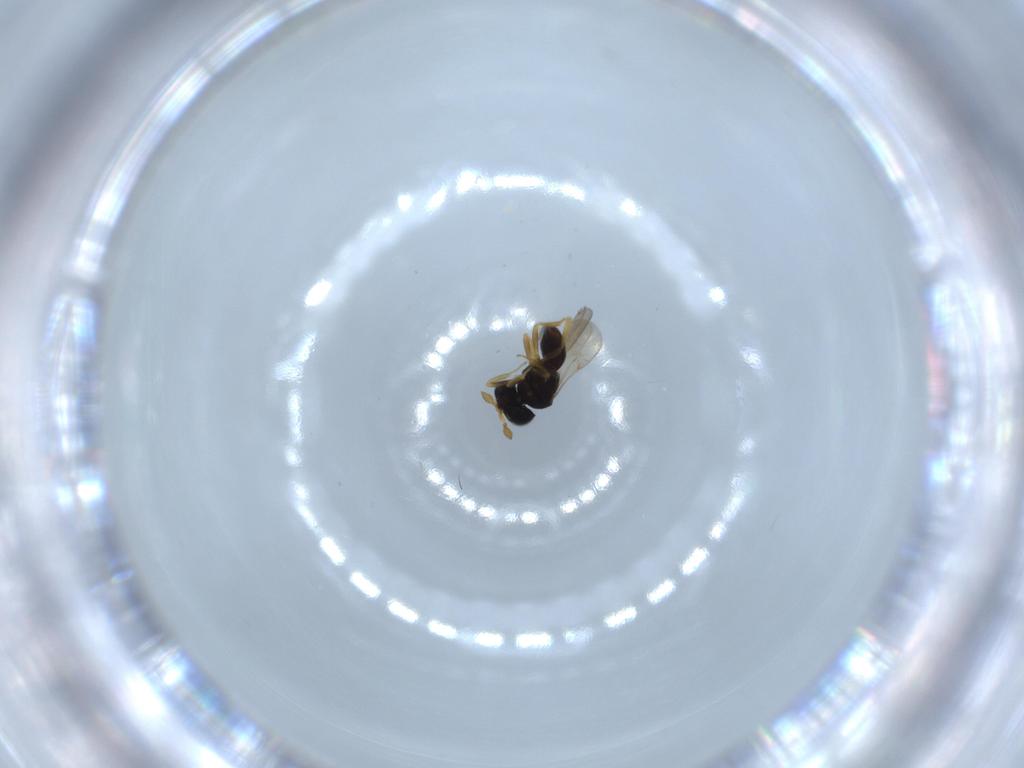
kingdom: Animalia
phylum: Arthropoda
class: Insecta
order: Hymenoptera
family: Scelionidae
